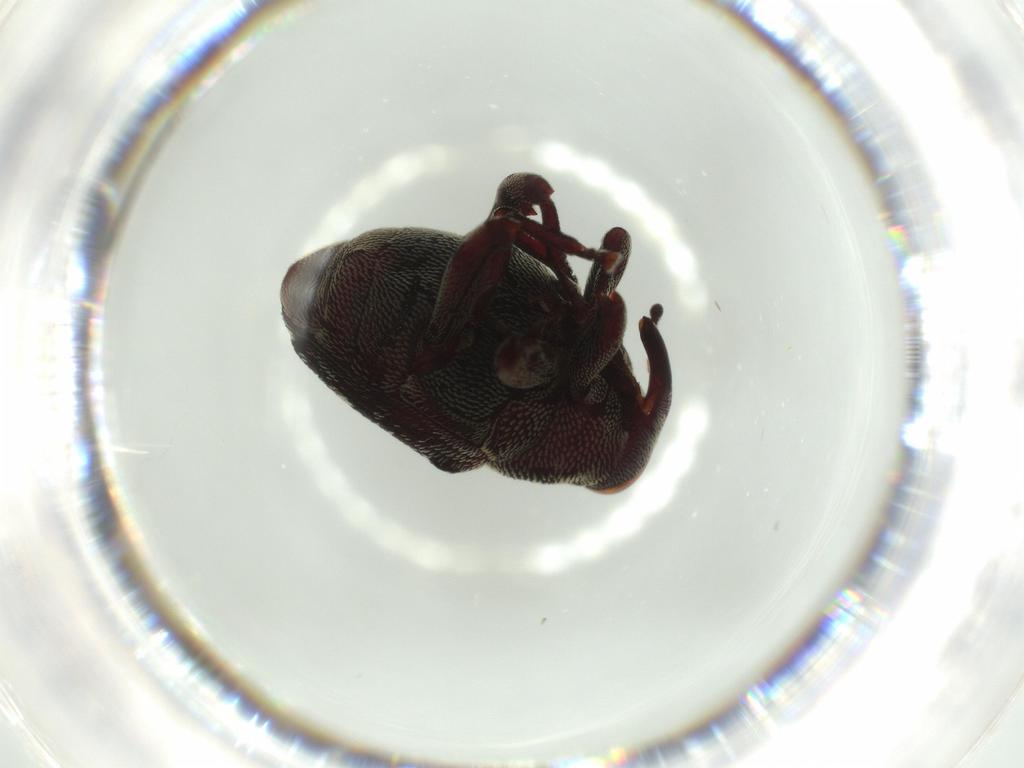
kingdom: Animalia
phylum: Arthropoda
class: Insecta
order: Coleoptera
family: Curculionidae
